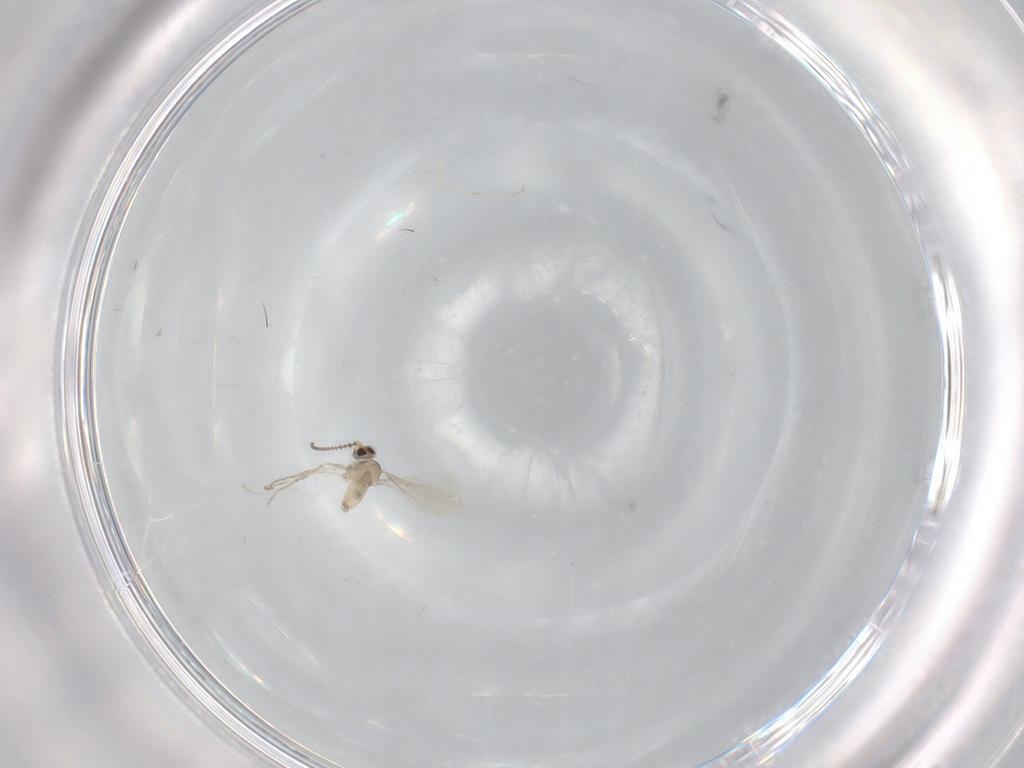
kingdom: Animalia
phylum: Arthropoda
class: Insecta
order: Diptera
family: Cecidomyiidae
